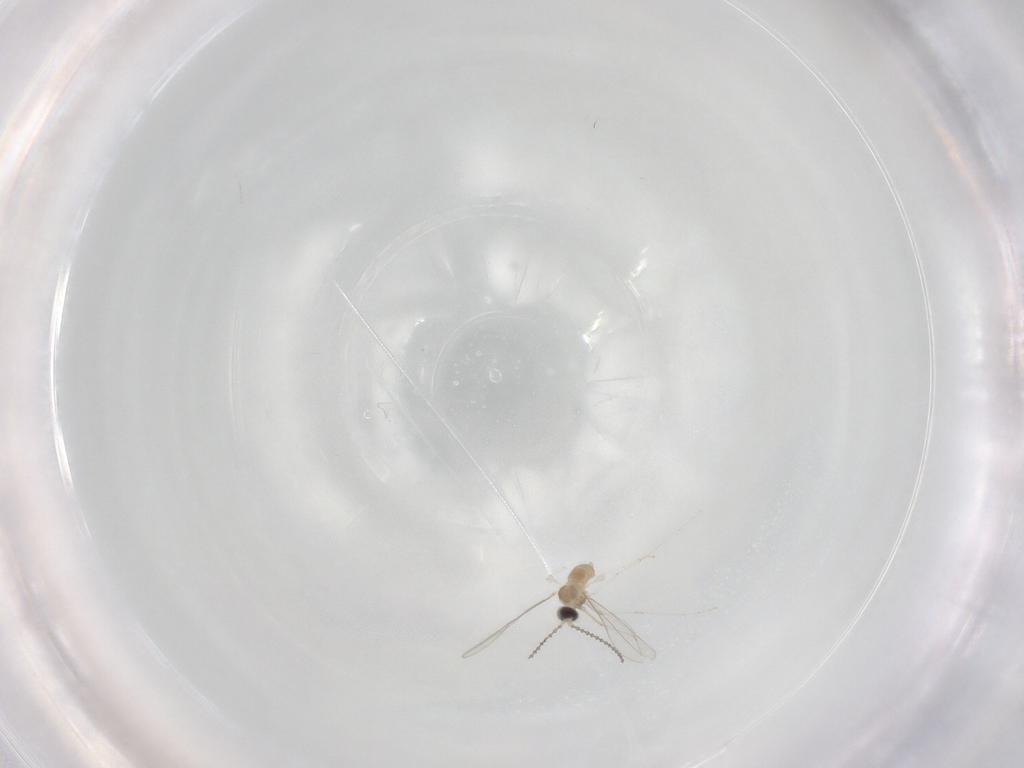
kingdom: Animalia
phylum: Arthropoda
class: Insecta
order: Diptera
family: Cecidomyiidae
